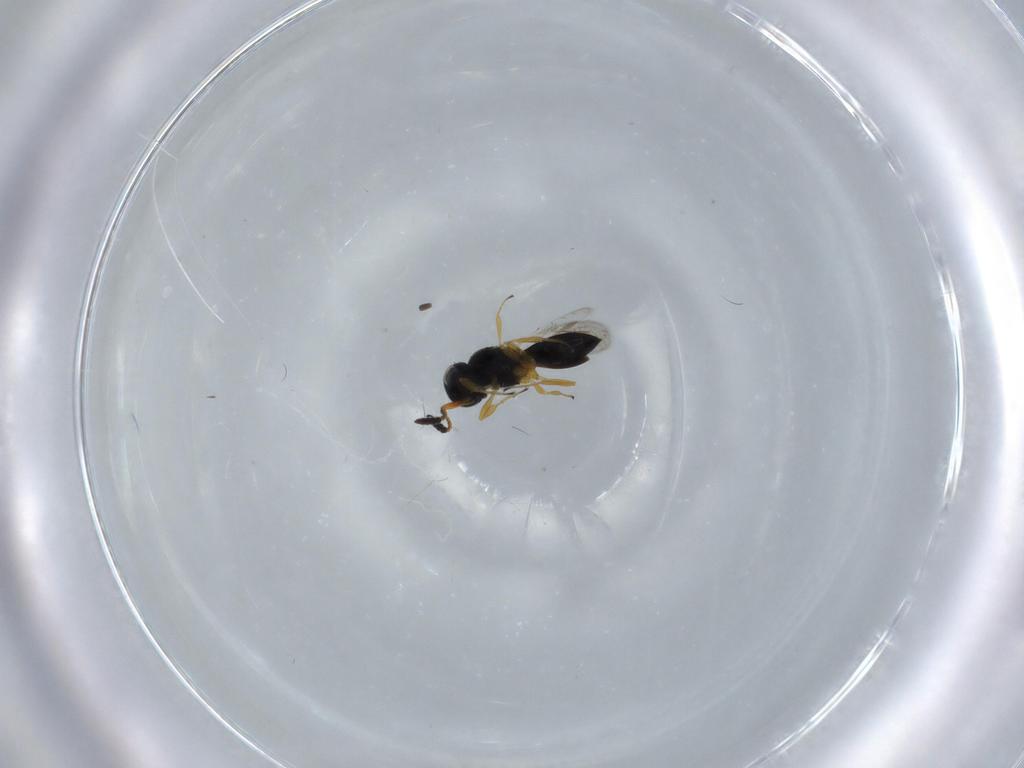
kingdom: Animalia
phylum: Arthropoda
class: Insecta
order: Hymenoptera
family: Scelionidae
